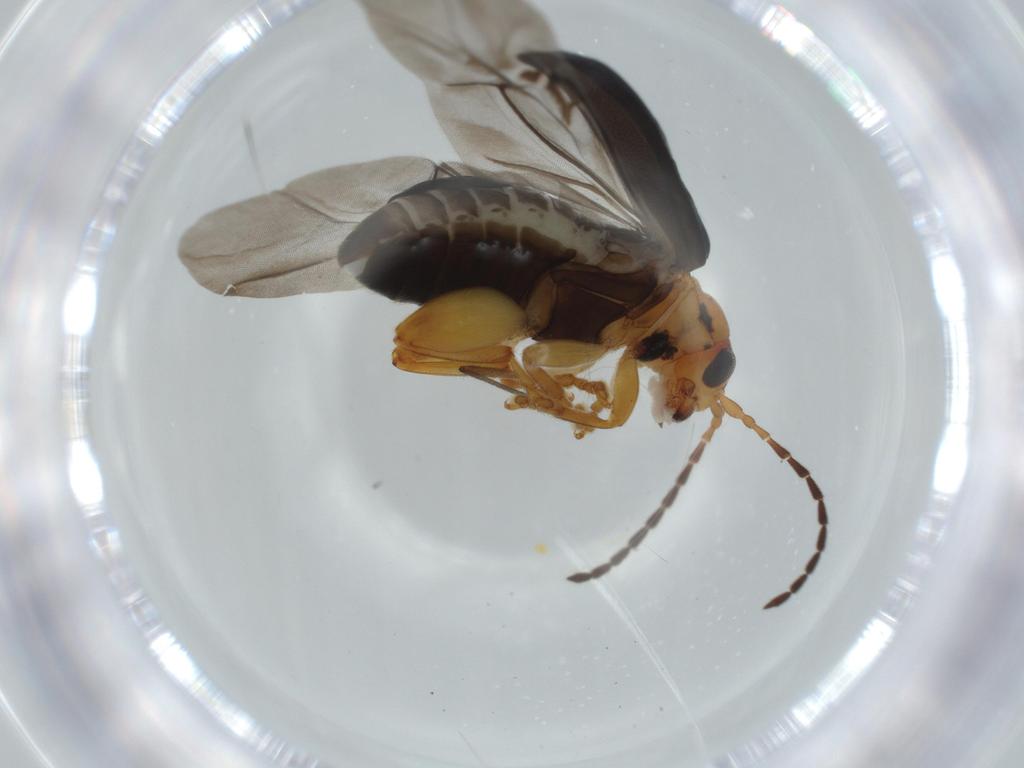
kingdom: Animalia
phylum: Arthropoda
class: Insecta
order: Coleoptera
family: Chrysomelidae
